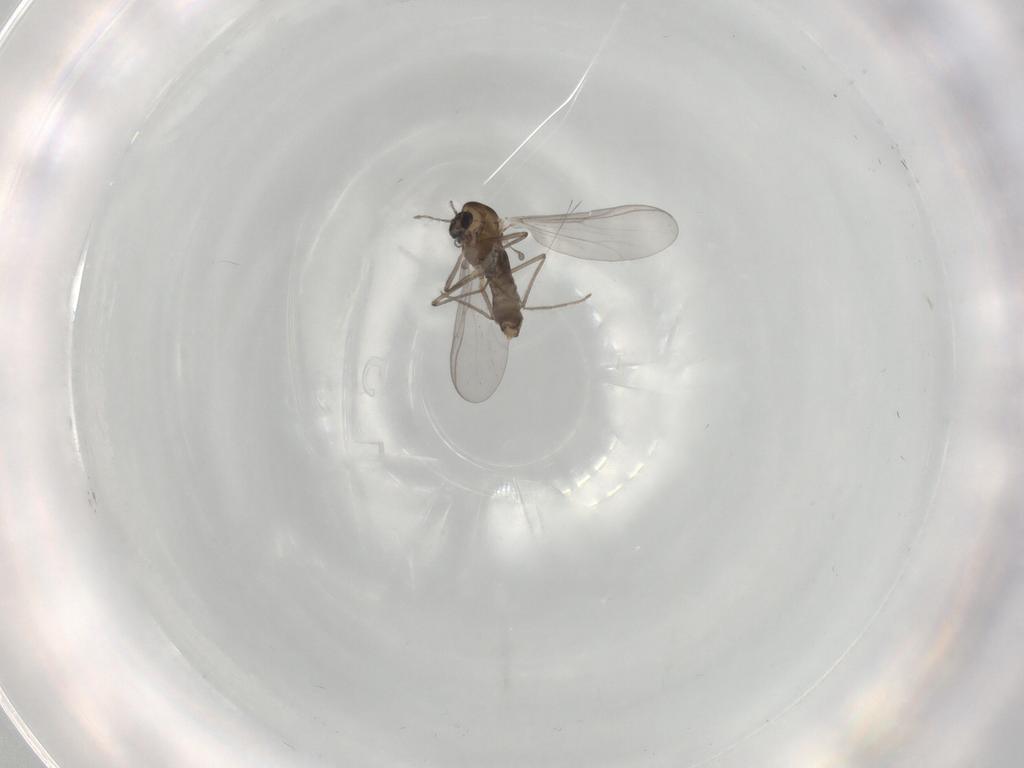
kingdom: Animalia
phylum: Arthropoda
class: Insecta
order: Diptera
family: Chironomidae
